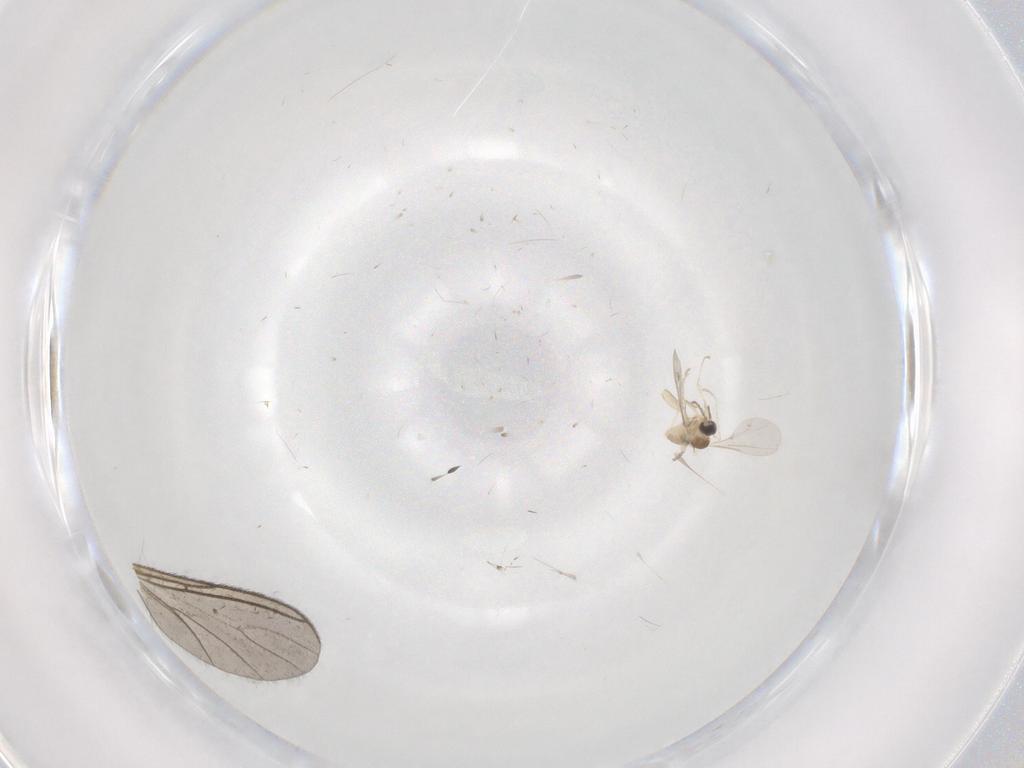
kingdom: Animalia
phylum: Arthropoda
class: Insecta
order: Diptera
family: Cecidomyiidae
